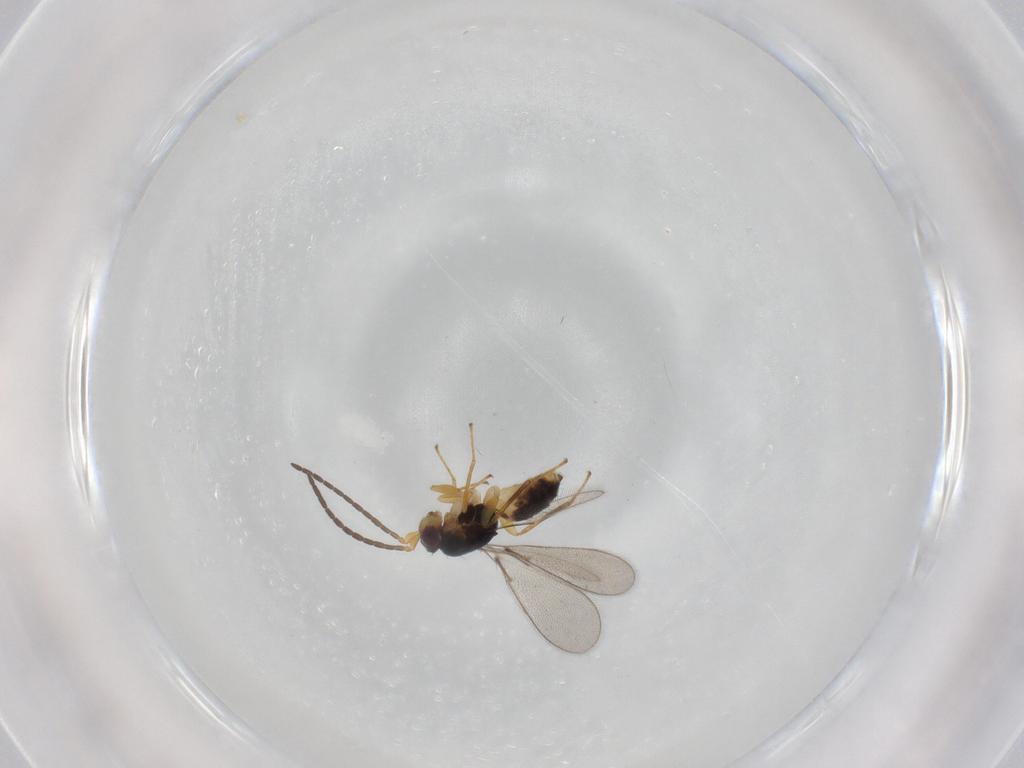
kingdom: Animalia
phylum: Arthropoda
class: Insecta
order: Hymenoptera
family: Mymaridae
